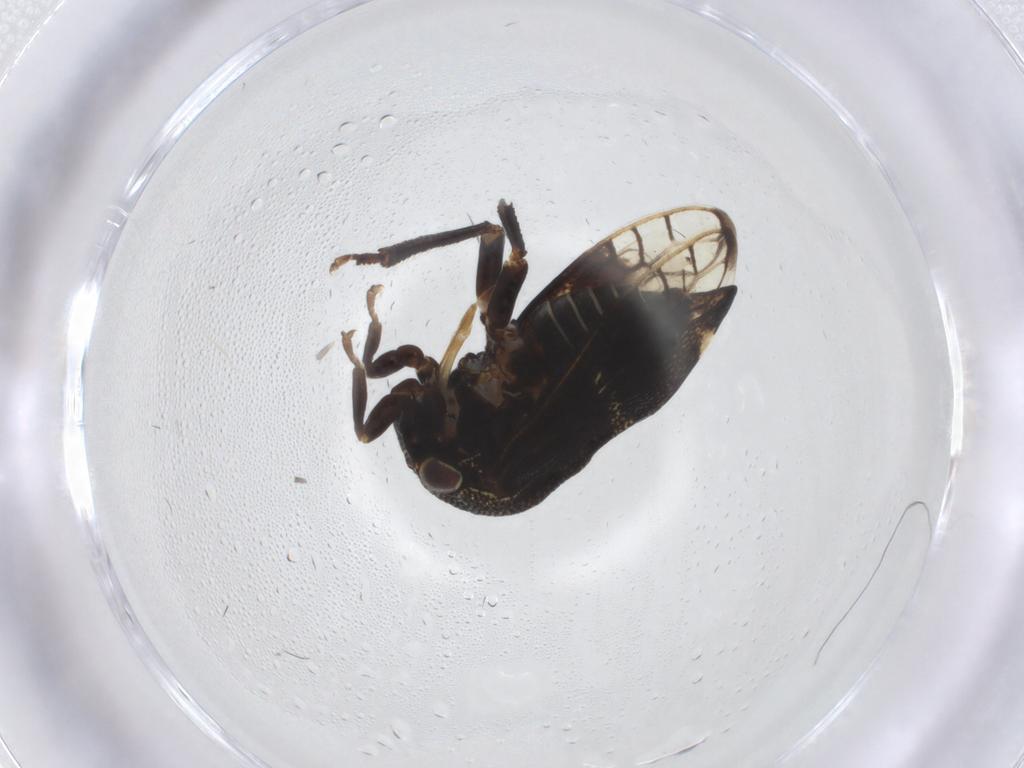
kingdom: Animalia
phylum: Arthropoda
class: Insecta
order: Hemiptera
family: Membracidae
